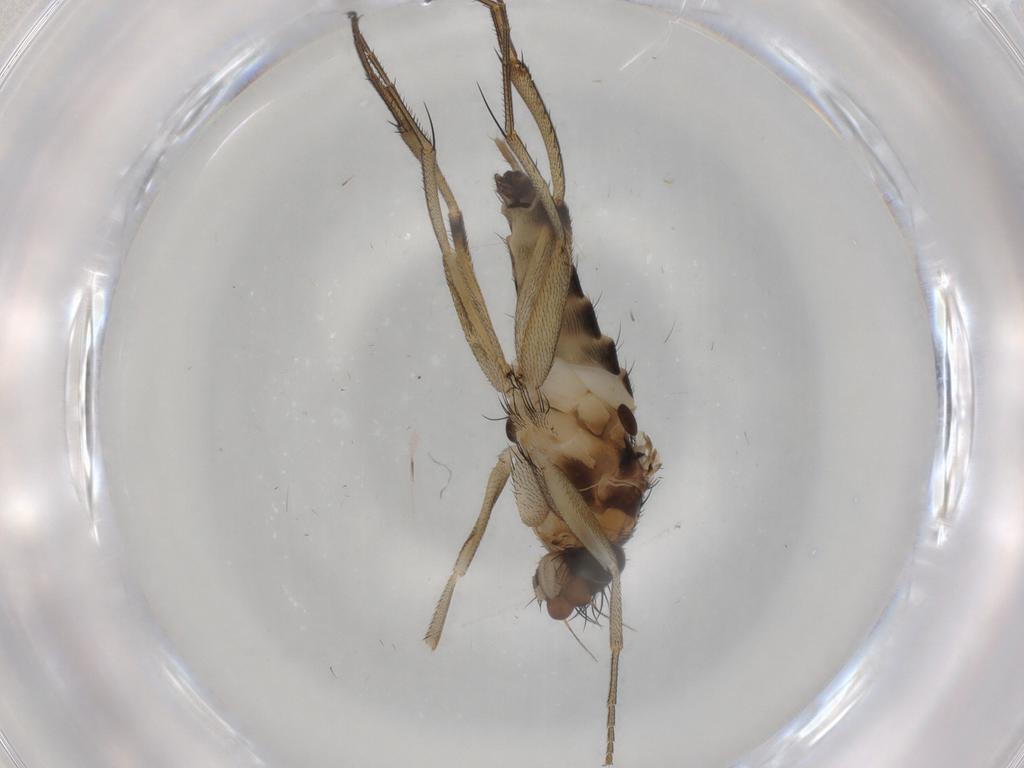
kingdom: Animalia
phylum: Arthropoda
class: Insecta
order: Diptera
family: Phoridae
